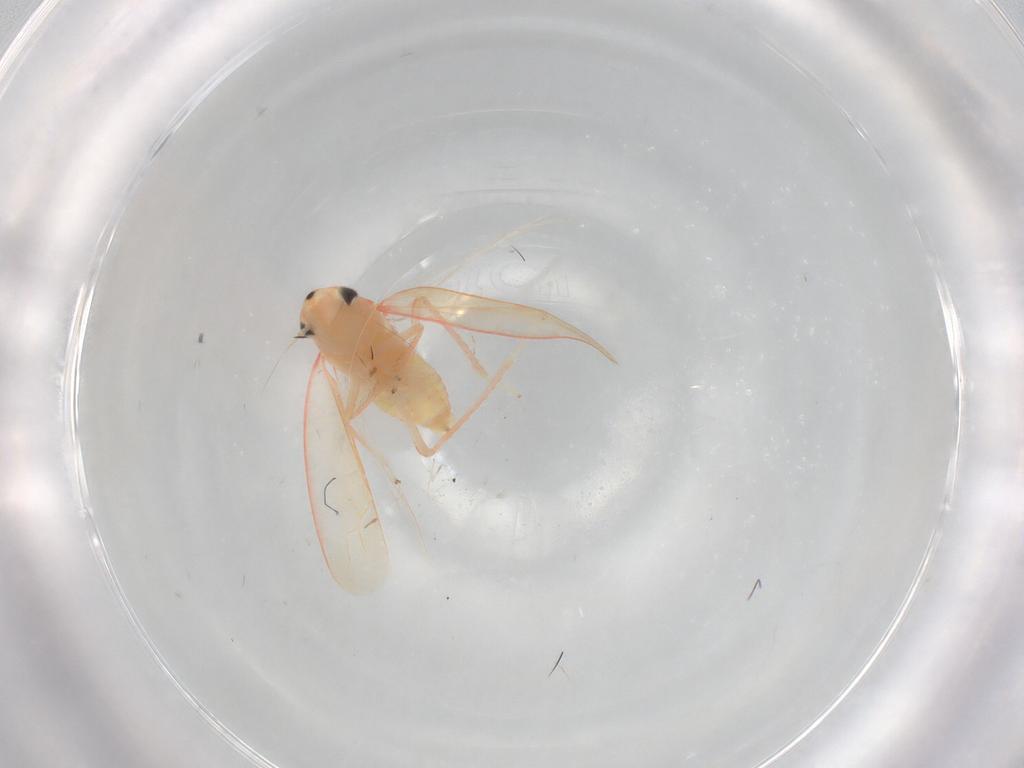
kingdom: Animalia
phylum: Arthropoda
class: Insecta
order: Hemiptera
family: Cicadellidae
